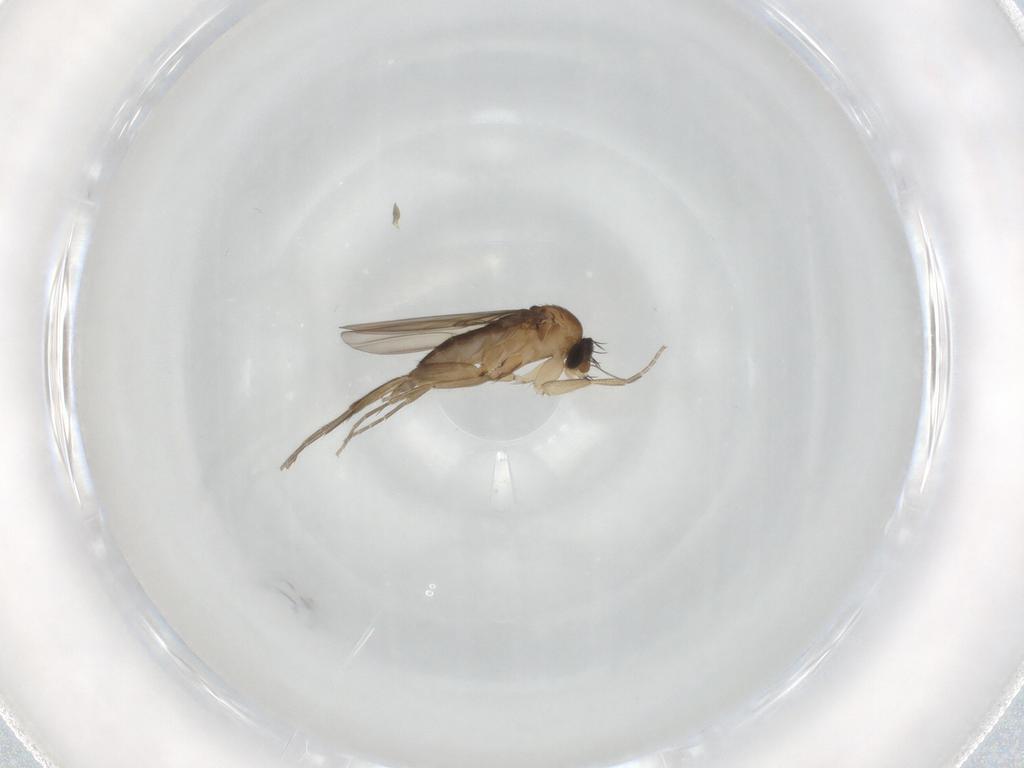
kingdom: Animalia
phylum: Arthropoda
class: Insecta
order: Diptera
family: Phoridae
